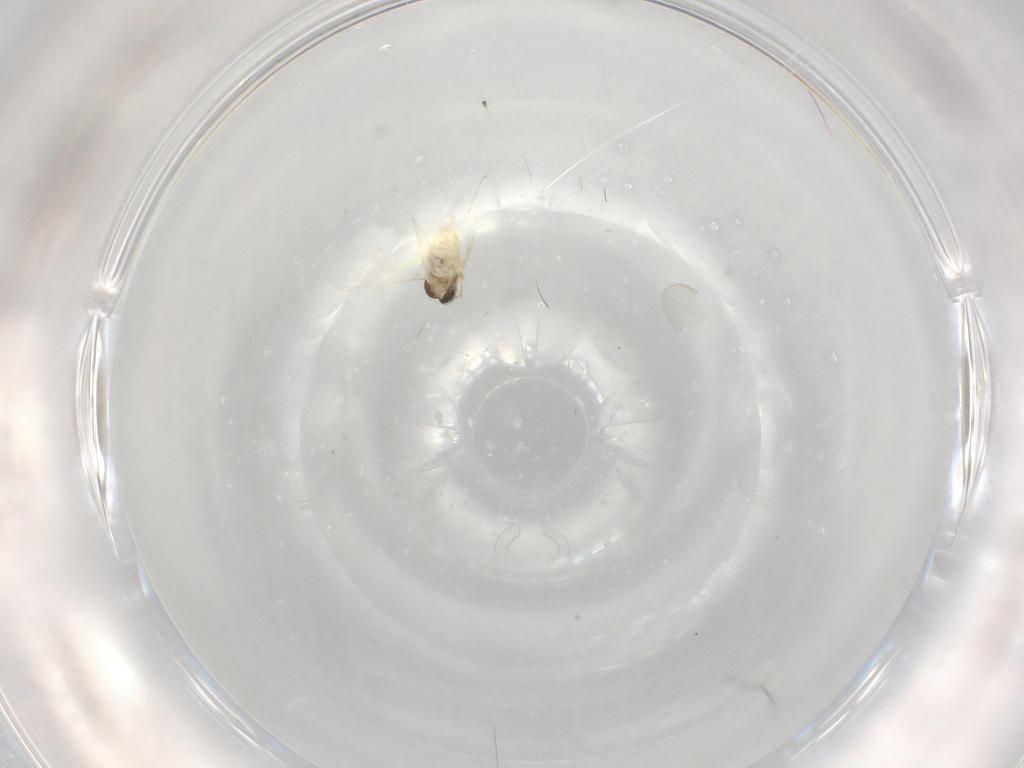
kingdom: Animalia
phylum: Arthropoda
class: Insecta
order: Diptera
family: Cecidomyiidae
